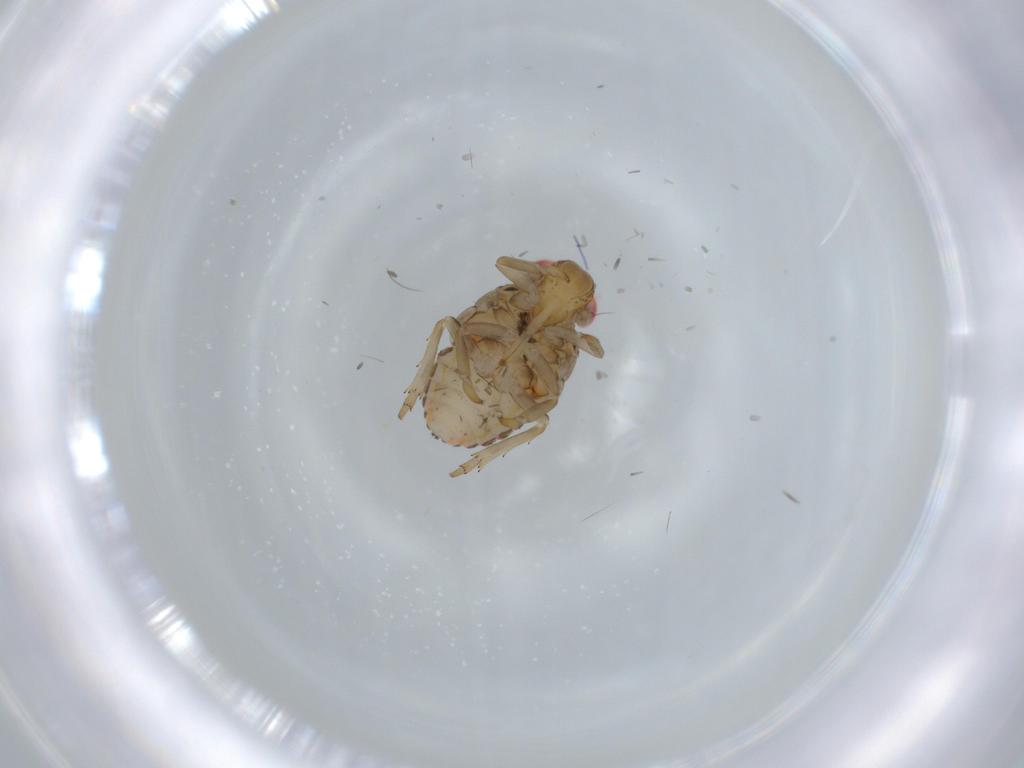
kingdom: Animalia
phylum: Arthropoda
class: Insecta
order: Hemiptera
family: Issidae
